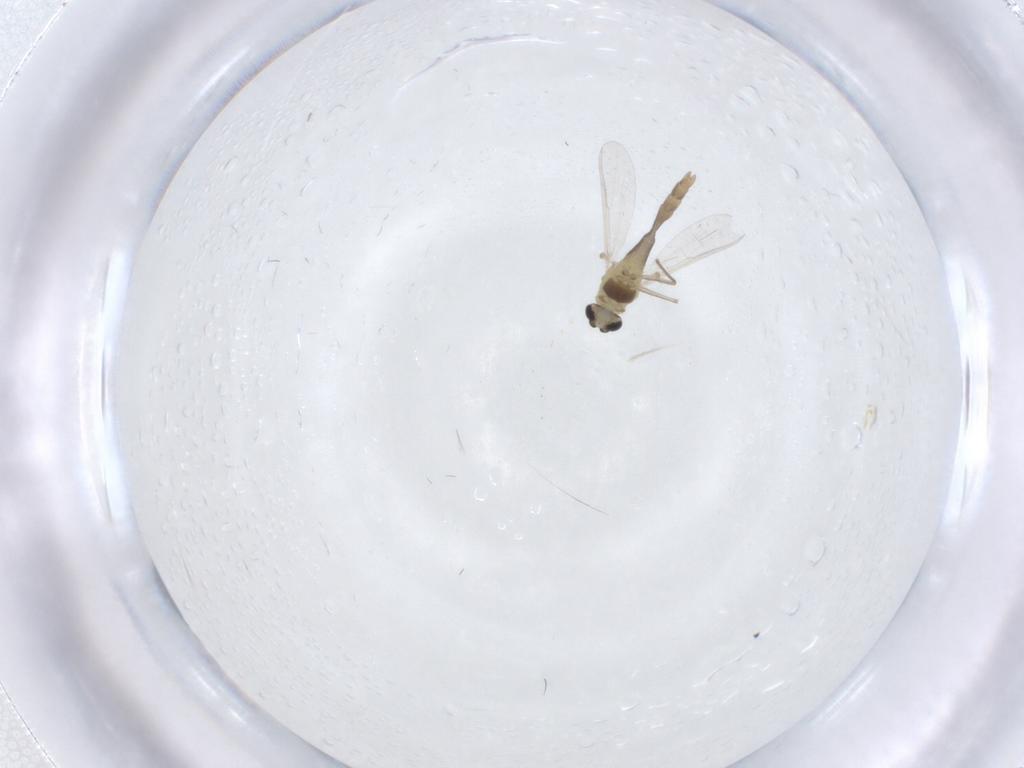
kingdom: Animalia
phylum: Arthropoda
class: Insecta
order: Diptera
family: Chironomidae
